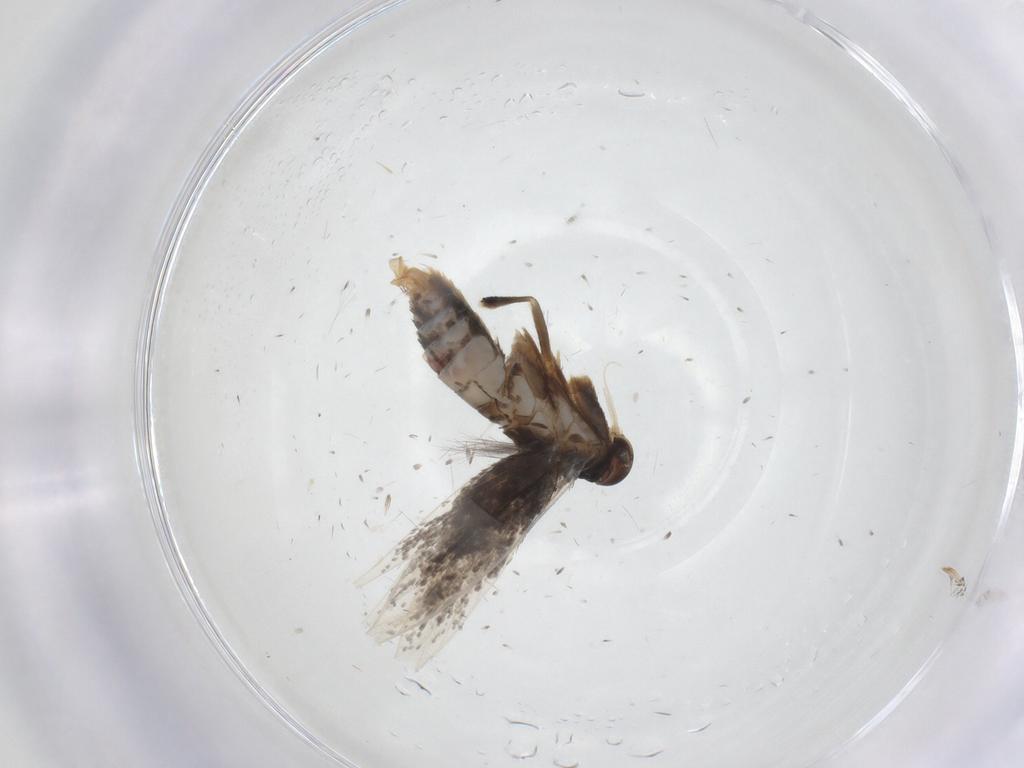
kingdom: Animalia
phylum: Arthropoda
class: Insecta
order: Lepidoptera
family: Elachistidae
